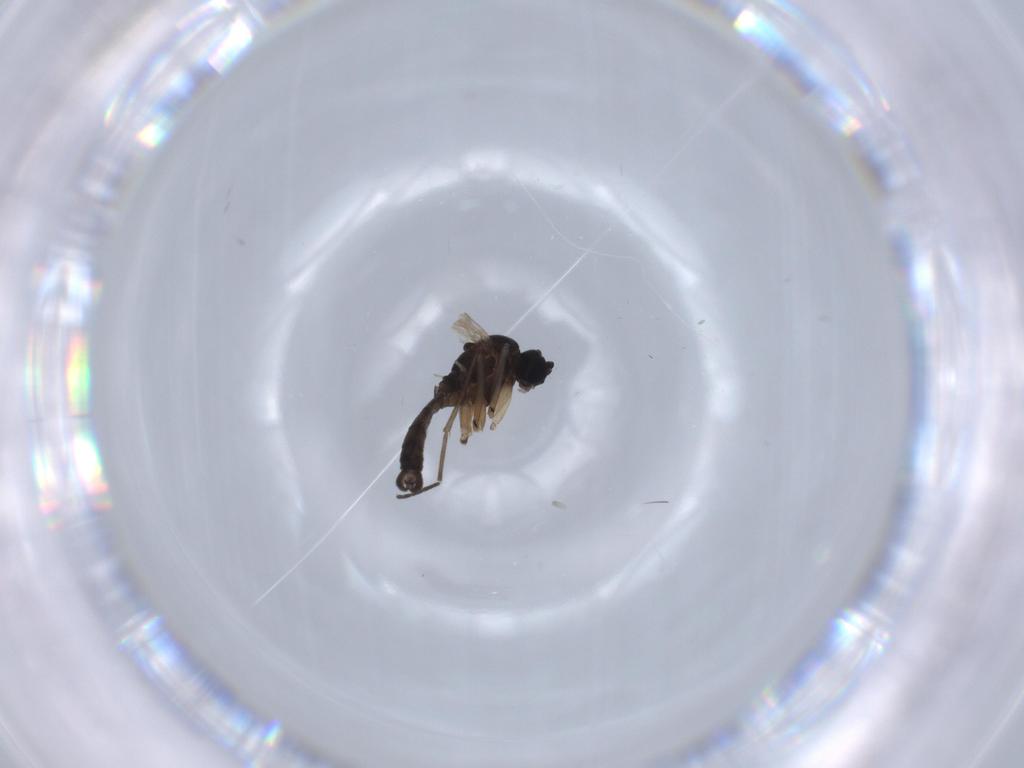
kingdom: Animalia
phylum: Arthropoda
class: Insecta
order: Diptera
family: Sciaridae
